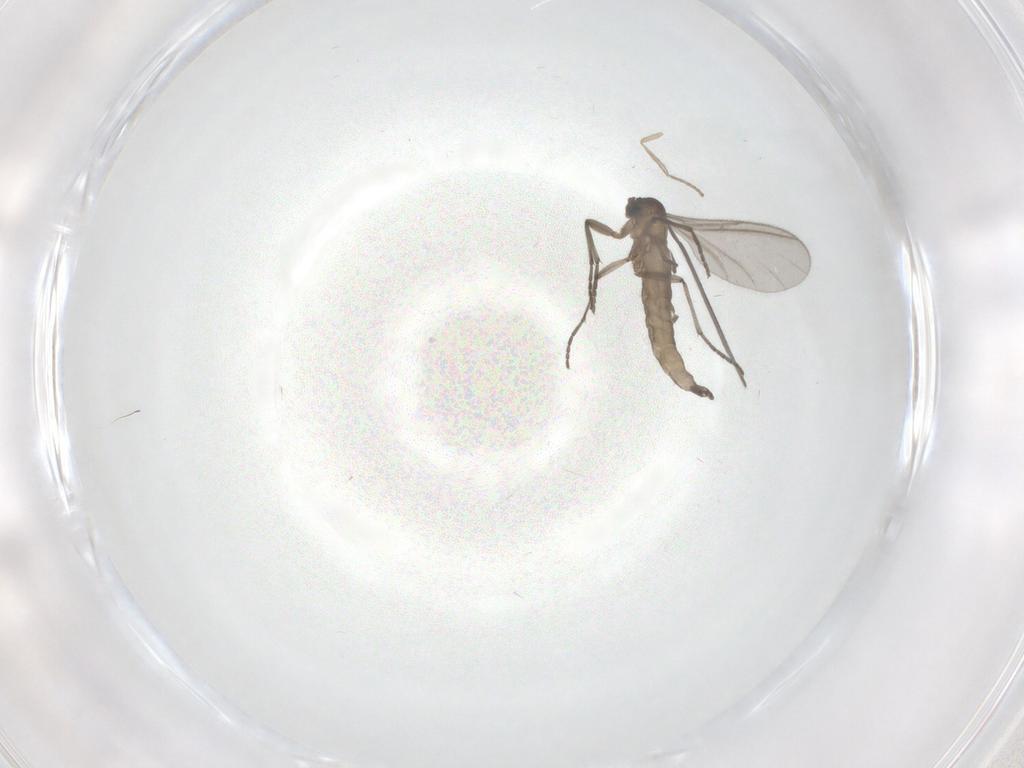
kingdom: Animalia
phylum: Arthropoda
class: Insecta
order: Diptera
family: Sciaridae
